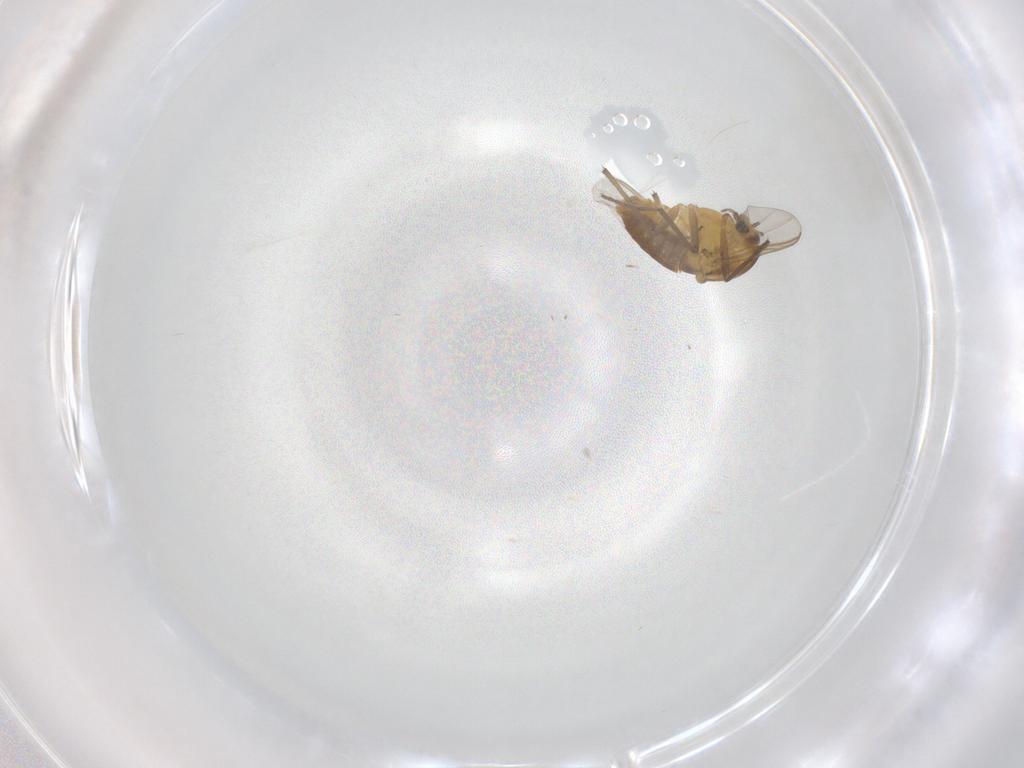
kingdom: Animalia
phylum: Arthropoda
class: Insecta
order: Diptera
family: Chironomidae
